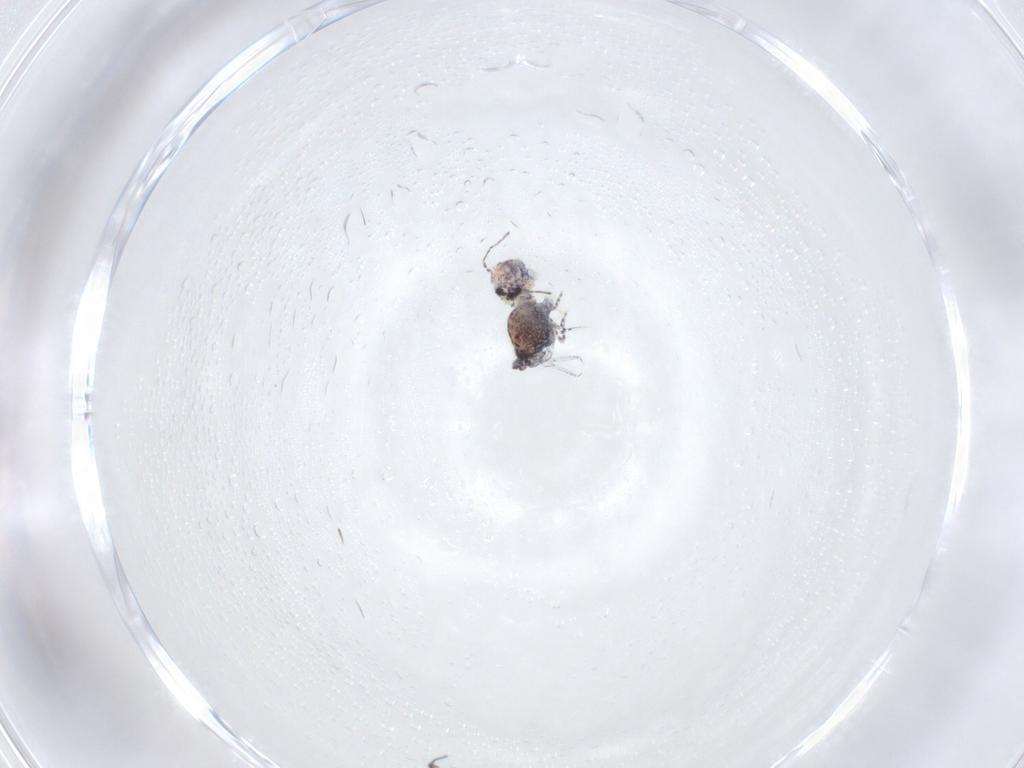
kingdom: Animalia
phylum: Arthropoda
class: Collembola
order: Symphypleona
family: Bourletiellidae
